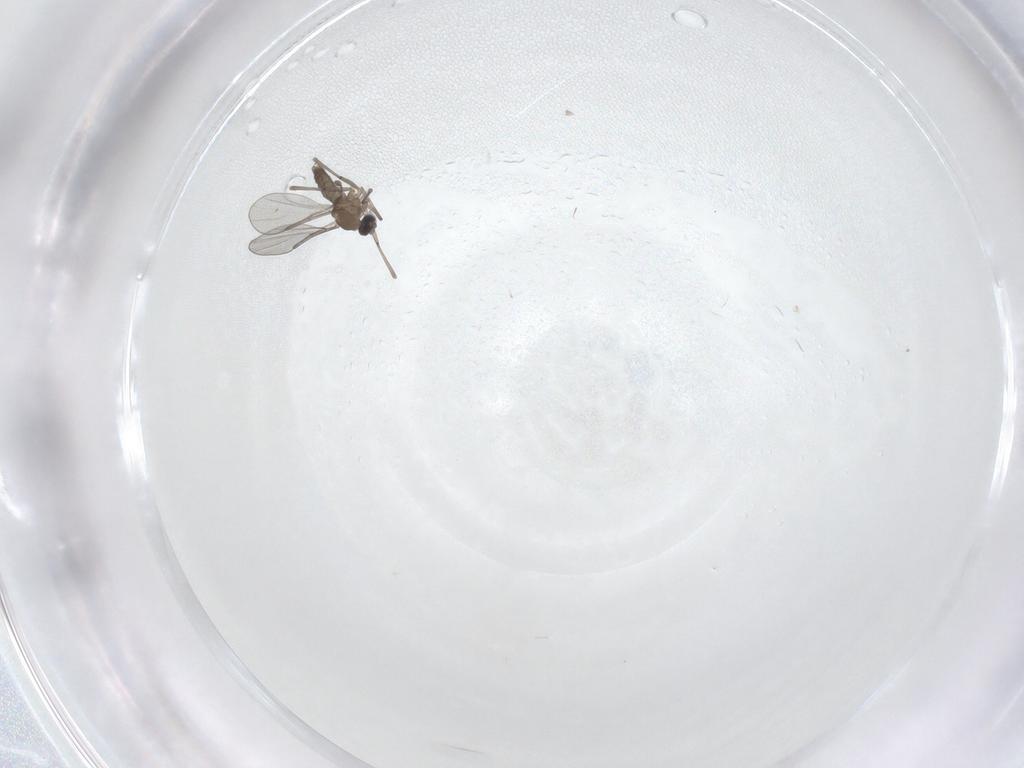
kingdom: Animalia
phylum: Arthropoda
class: Insecta
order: Diptera
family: Cecidomyiidae
